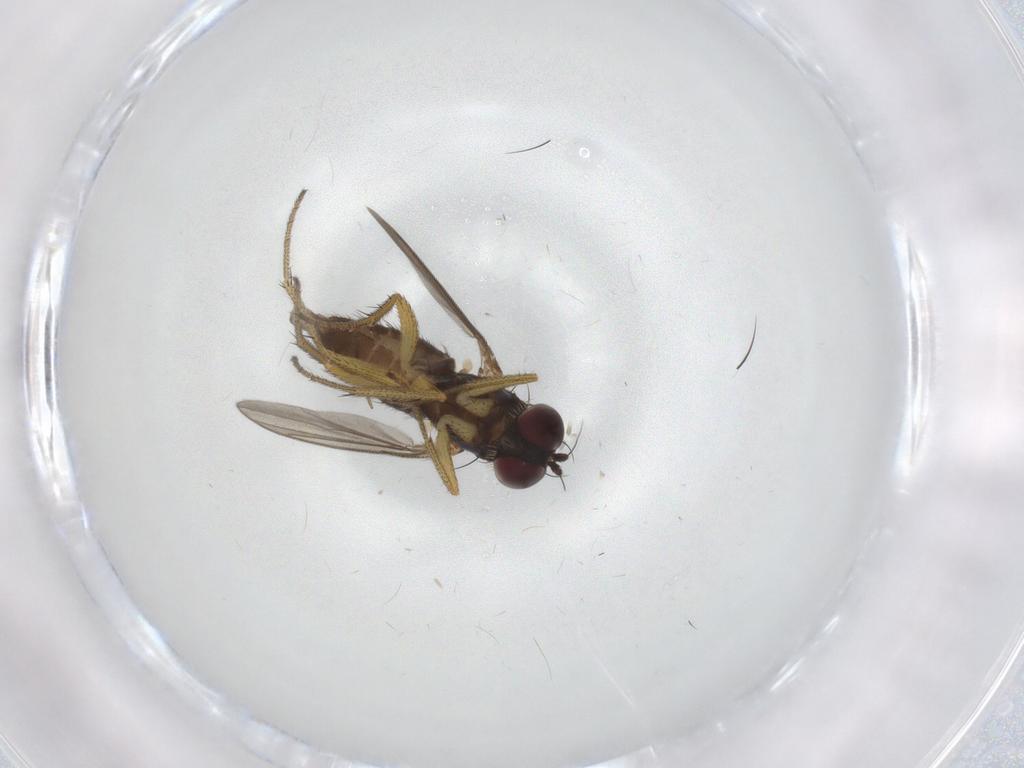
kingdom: Animalia
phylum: Arthropoda
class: Insecta
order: Diptera
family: Dolichopodidae
